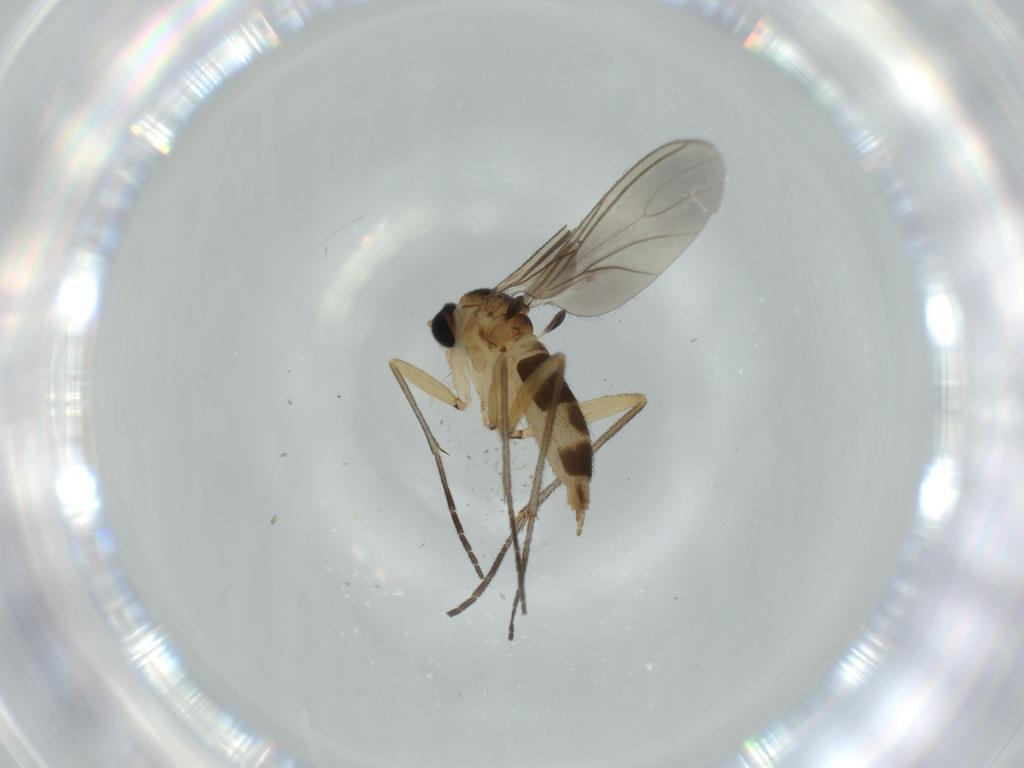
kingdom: Animalia
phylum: Arthropoda
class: Insecta
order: Diptera
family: Sciaridae
